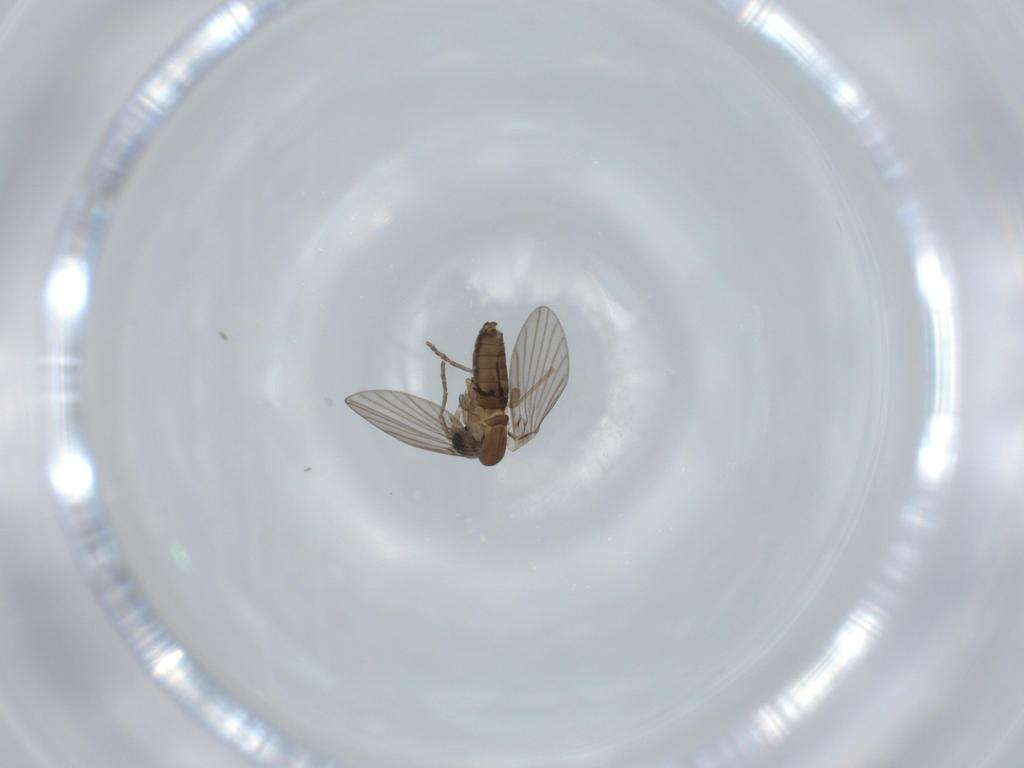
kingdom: Animalia
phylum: Arthropoda
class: Insecta
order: Diptera
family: Psychodidae
